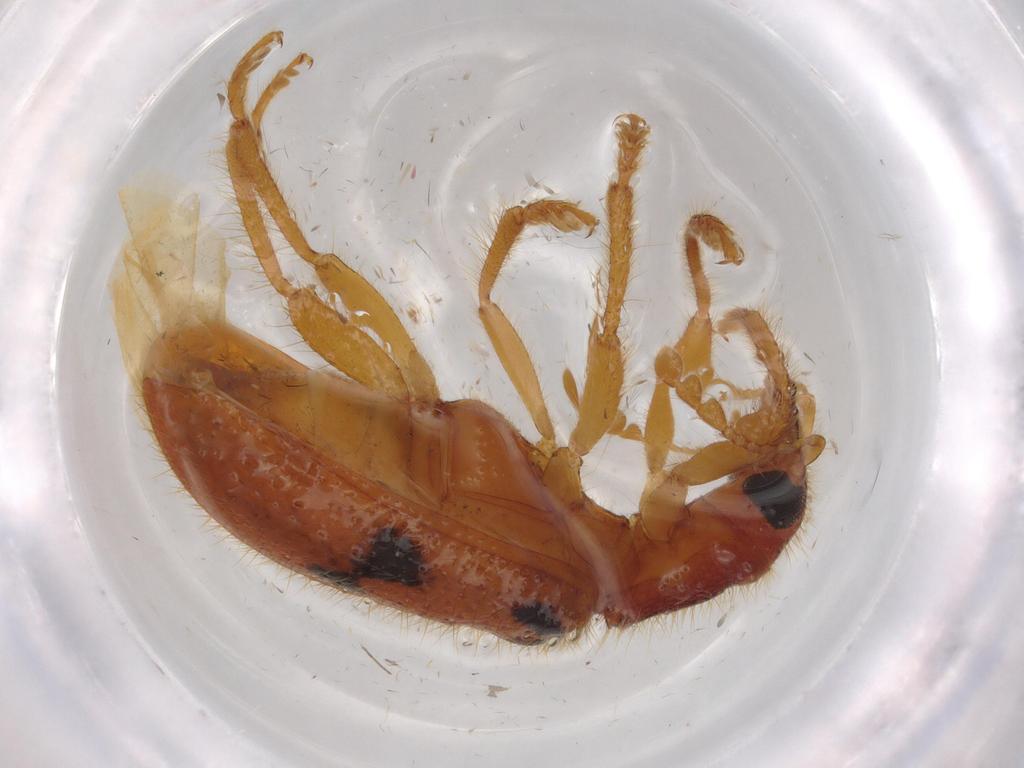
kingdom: Animalia
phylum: Arthropoda
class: Insecta
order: Coleoptera
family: Cleridae
